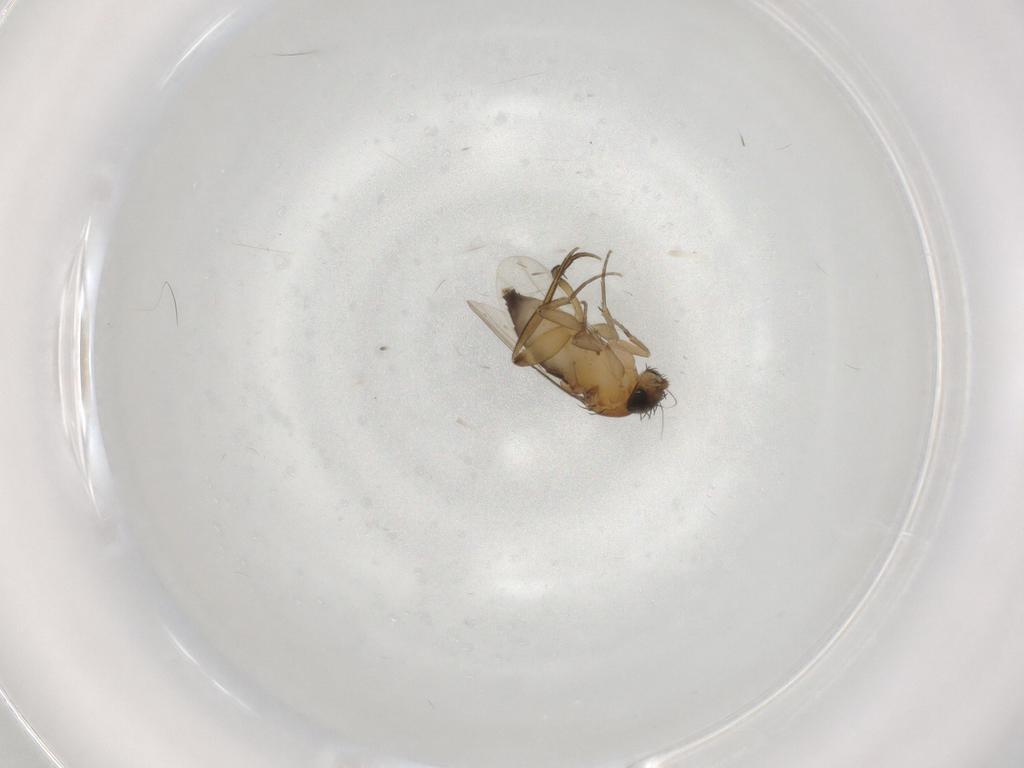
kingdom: Animalia
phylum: Arthropoda
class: Insecta
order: Diptera
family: Phoridae
